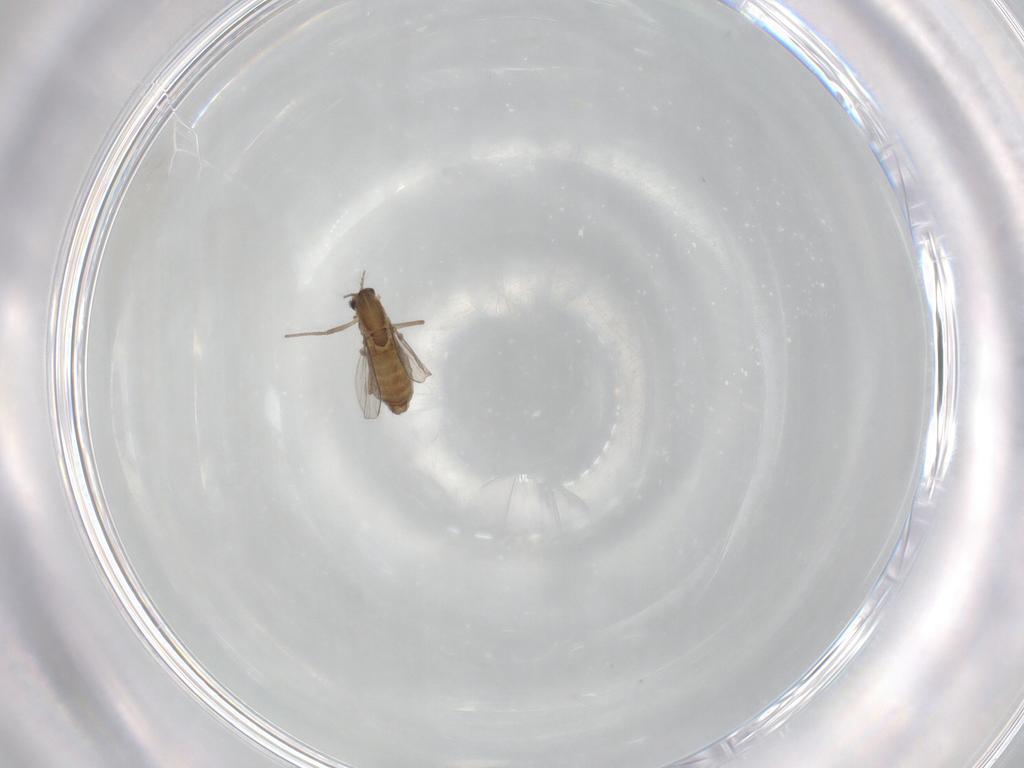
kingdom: Animalia
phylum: Arthropoda
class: Insecta
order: Diptera
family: Chironomidae
